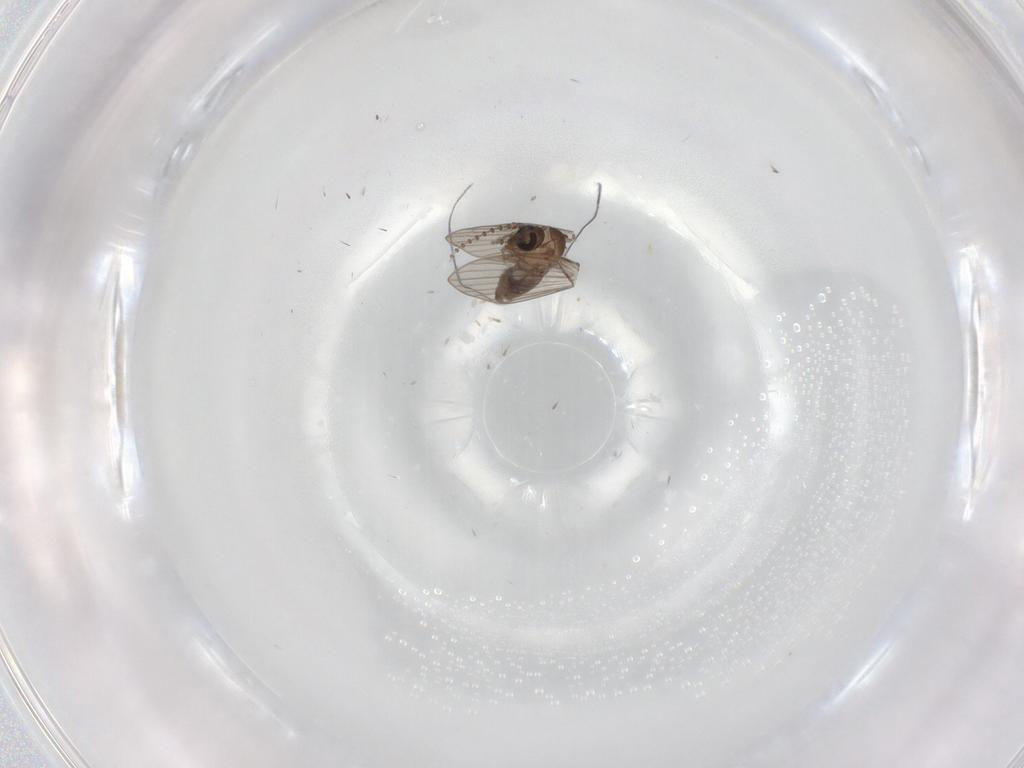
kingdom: Animalia
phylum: Arthropoda
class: Insecta
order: Diptera
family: Psychodidae
